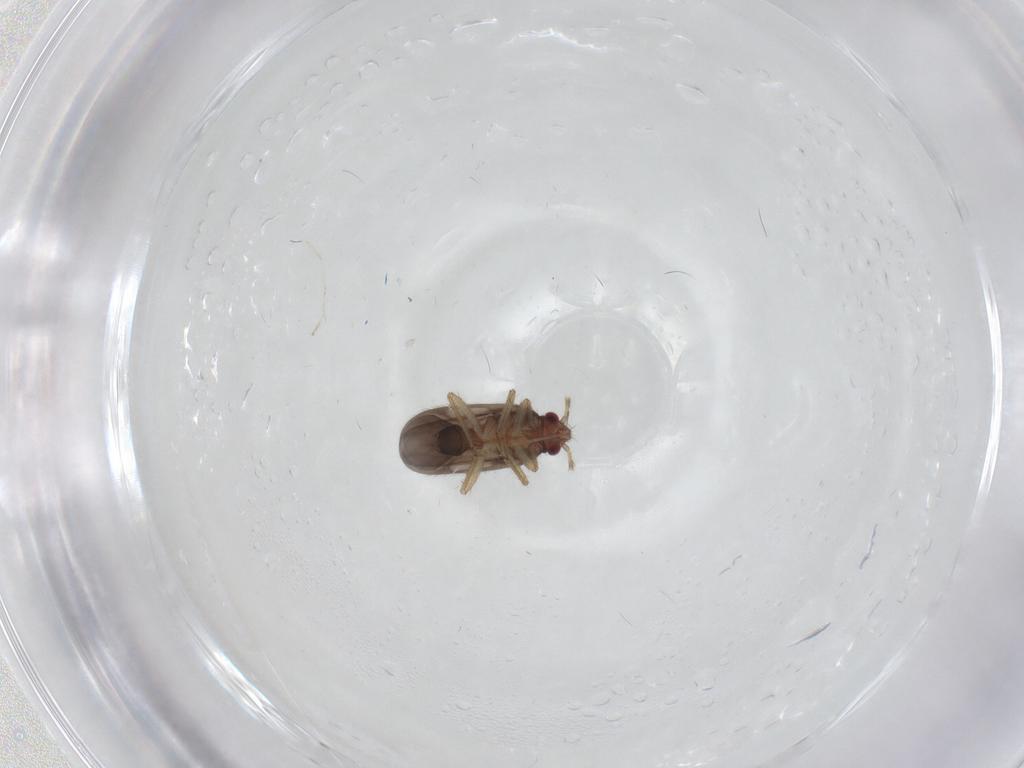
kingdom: Animalia
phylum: Arthropoda
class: Insecta
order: Hemiptera
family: Ceratocombidae
